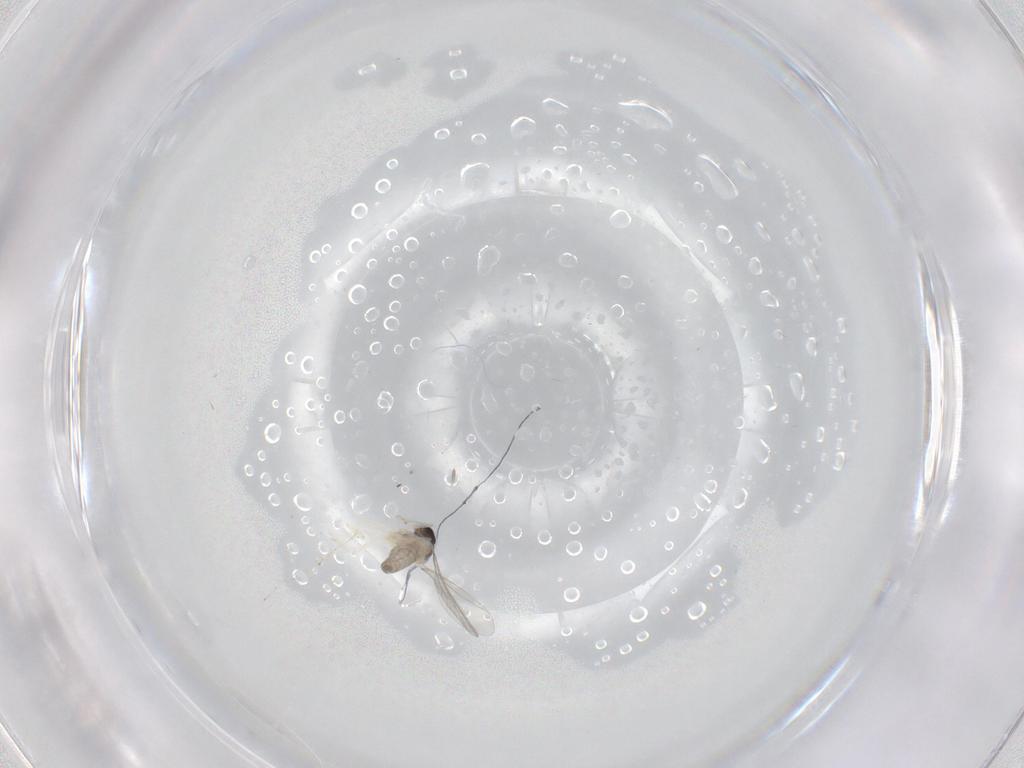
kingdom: Animalia
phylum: Arthropoda
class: Insecta
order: Diptera
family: Cecidomyiidae
